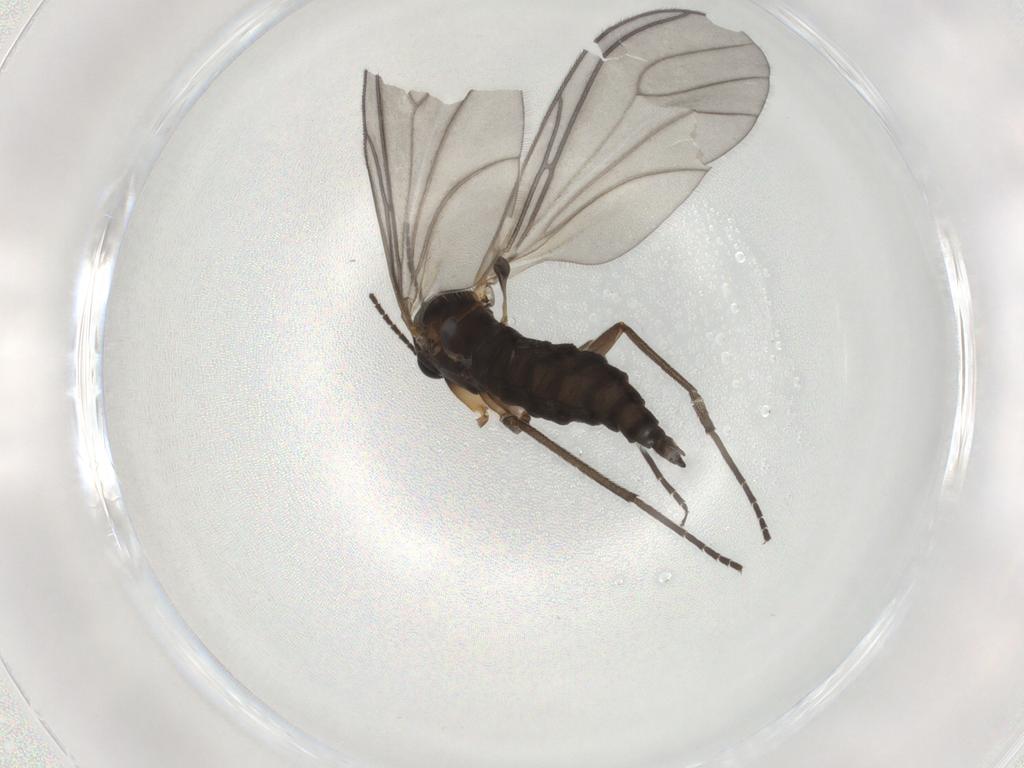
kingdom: Animalia
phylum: Arthropoda
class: Insecta
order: Diptera
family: Sciaridae
